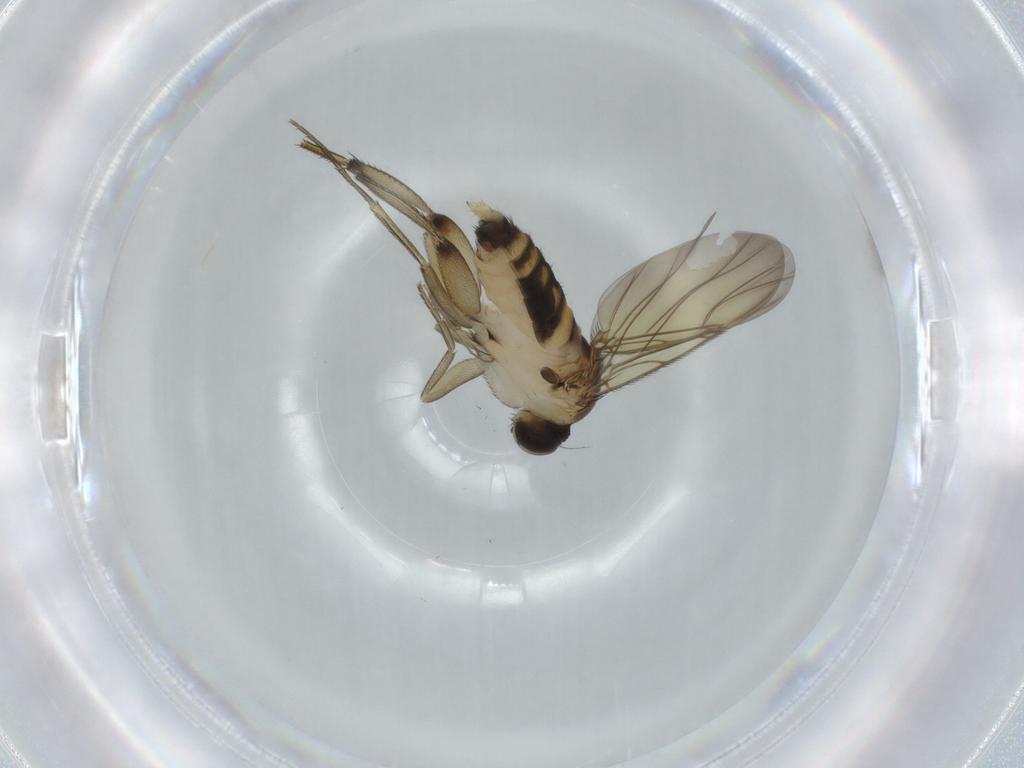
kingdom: Animalia
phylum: Arthropoda
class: Insecta
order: Diptera
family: Phoridae
